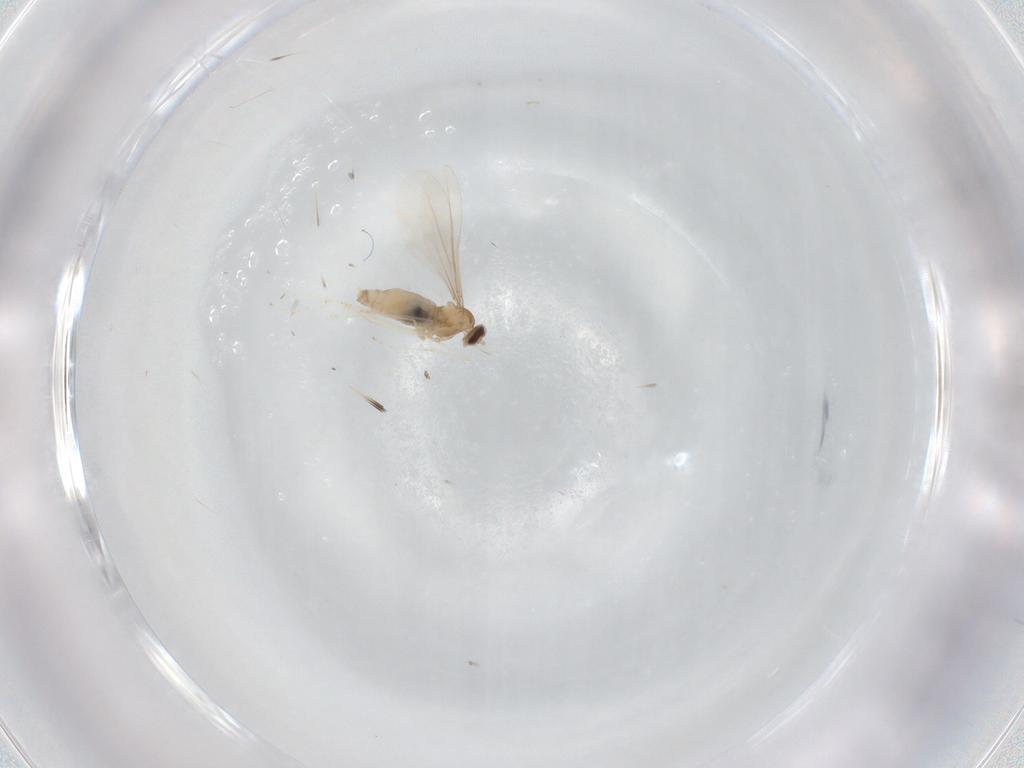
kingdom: Animalia
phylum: Arthropoda
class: Insecta
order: Diptera
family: Cecidomyiidae
